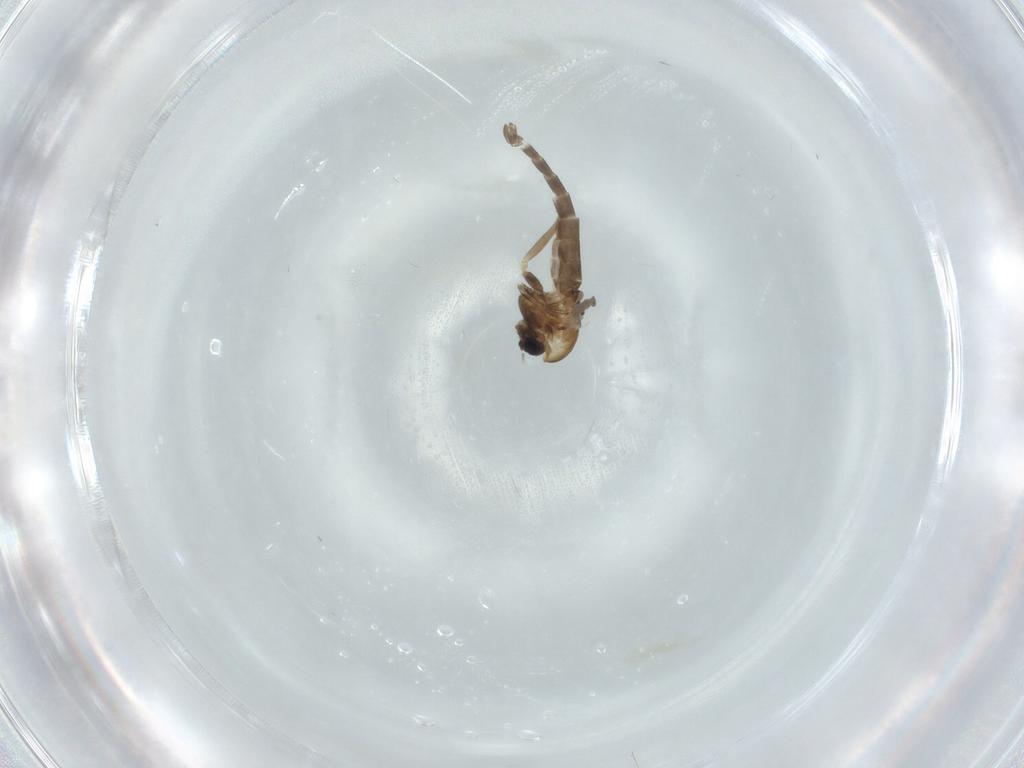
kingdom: Animalia
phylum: Arthropoda
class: Insecta
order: Diptera
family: Chironomidae
